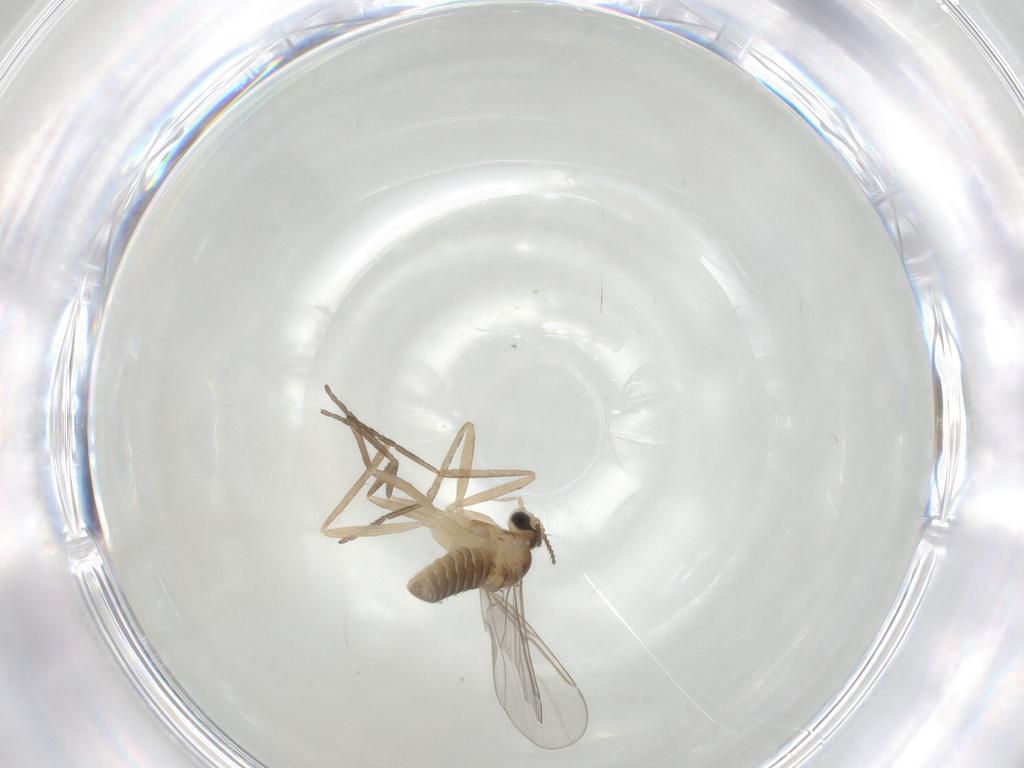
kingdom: Animalia
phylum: Arthropoda
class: Insecta
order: Diptera
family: Cecidomyiidae
